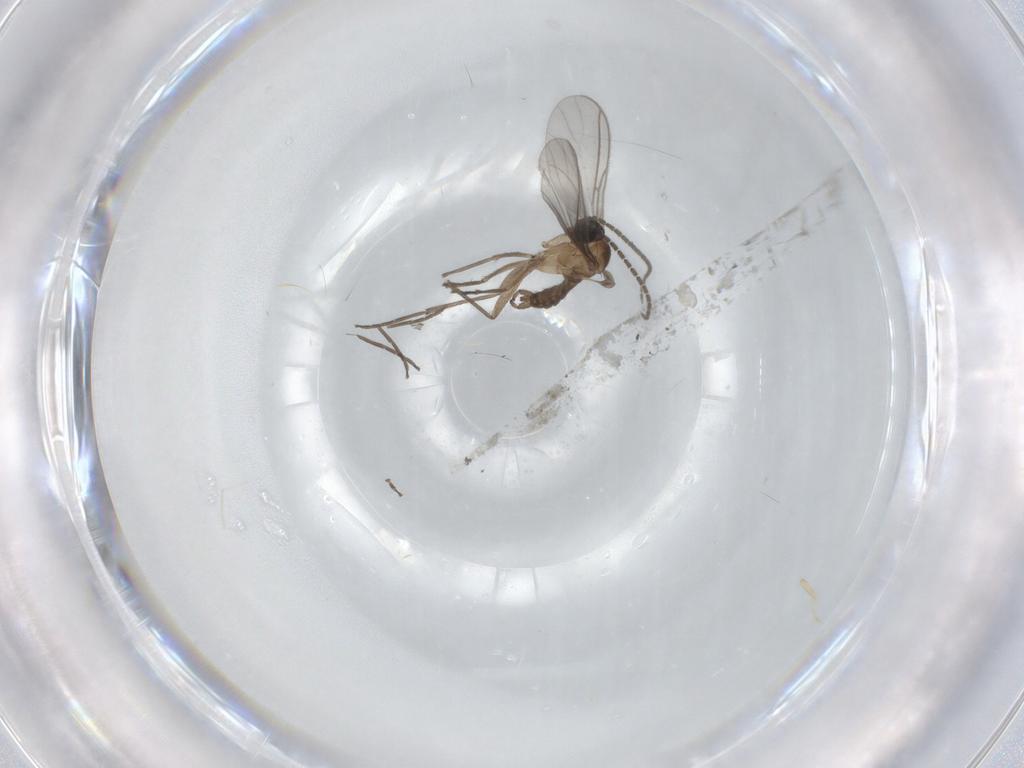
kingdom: Animalia
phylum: Arthropoda
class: Insecta
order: Diptera
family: Cecidomyiidae
